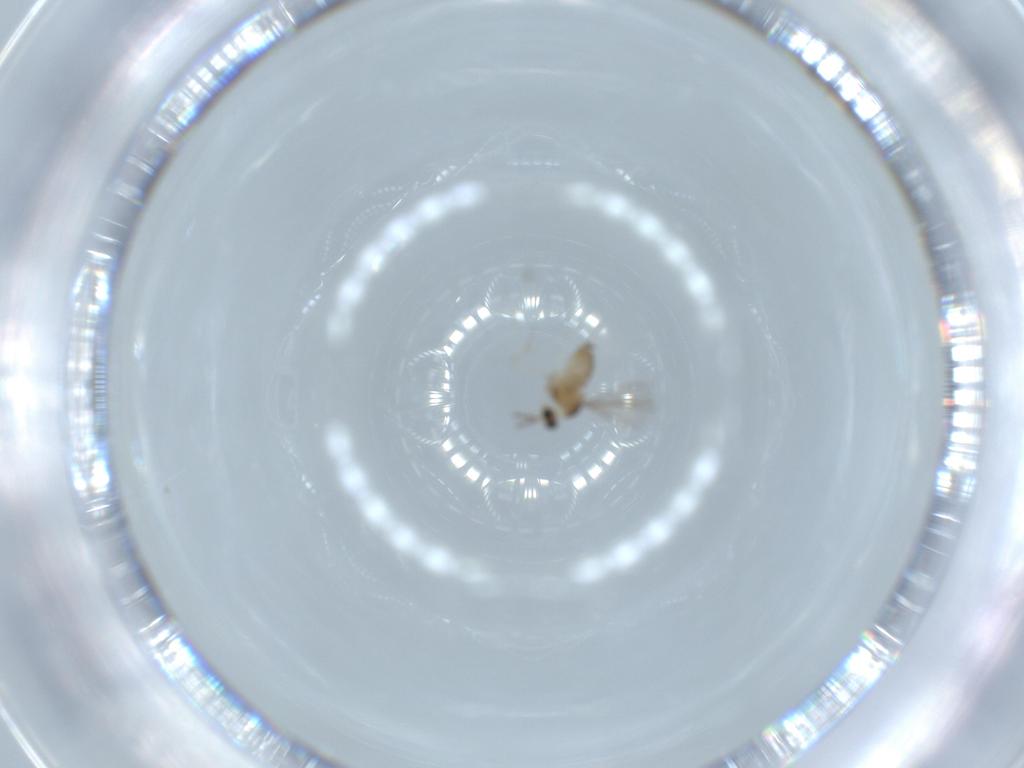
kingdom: Animalia
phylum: Arthropoda
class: Insecta
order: Diptera
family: Cecidomyiidae
